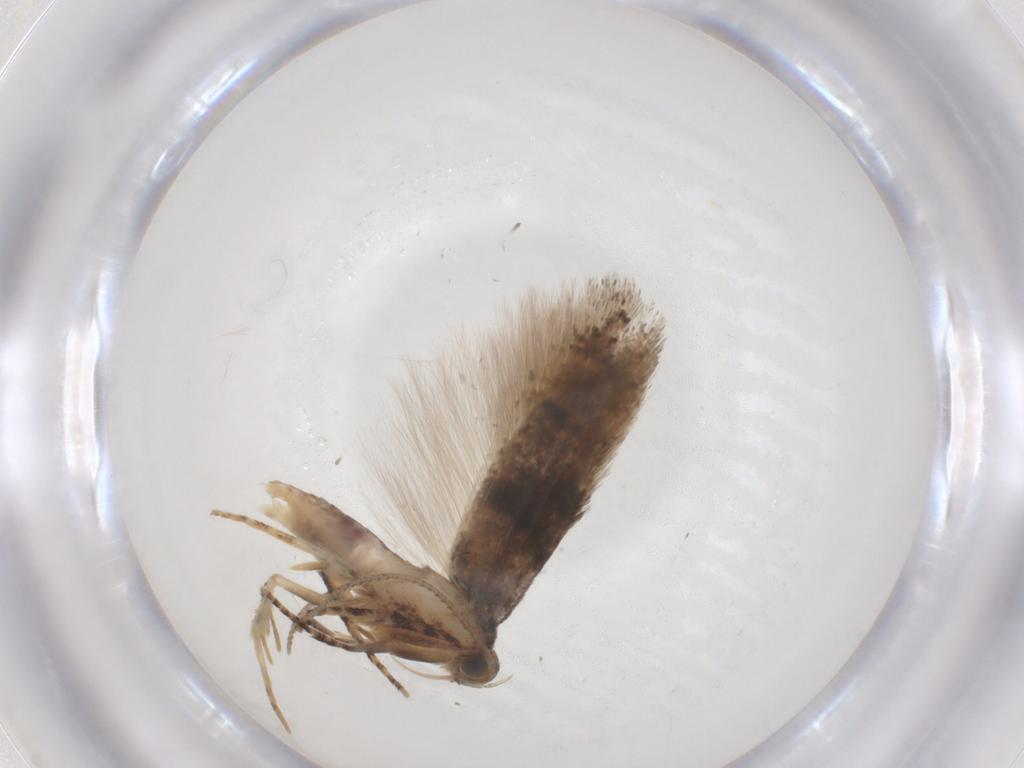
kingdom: Animalia
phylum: Arthropoda
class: Insecta
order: Lepidoptera
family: Gelechiidae
